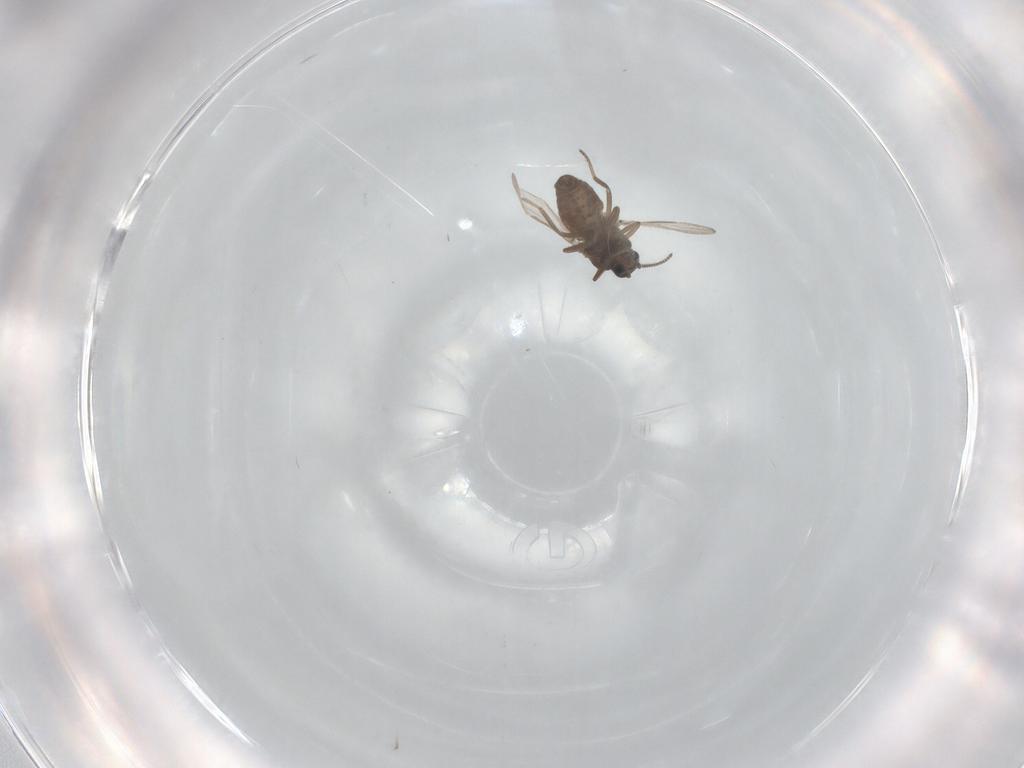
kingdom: Animalia
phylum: Arthropoda
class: Insecta
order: Diptera
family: Ceratopogonidae
